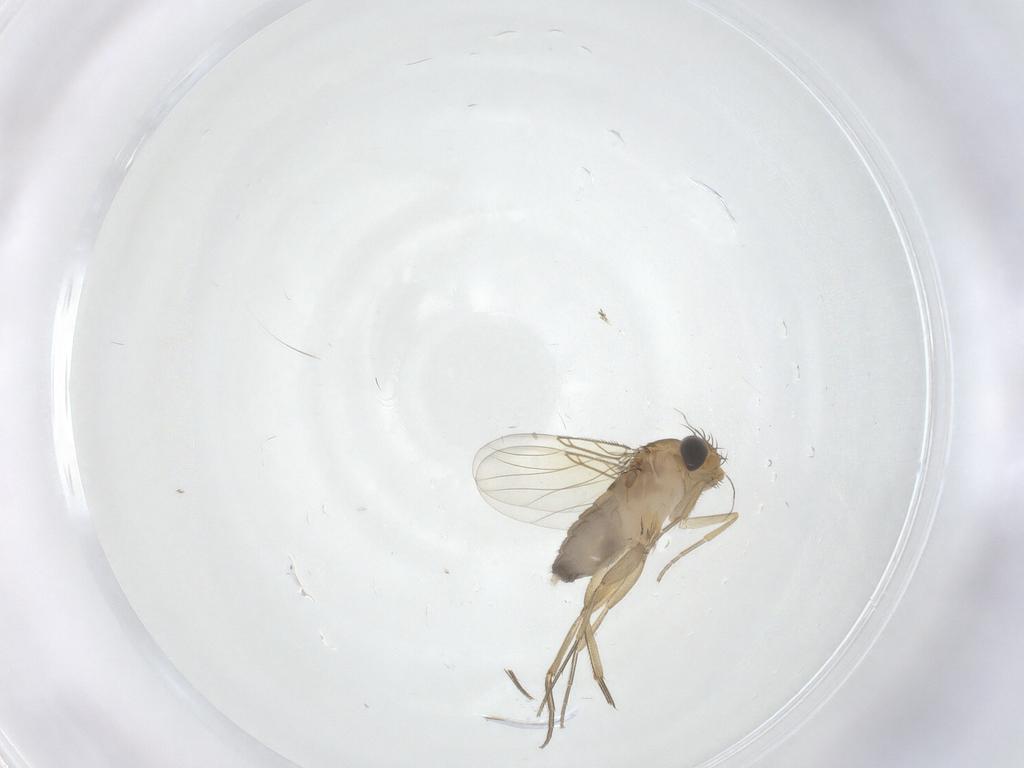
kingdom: Animalia
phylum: Arthropoda
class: Insecta
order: Diptera
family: Phoridae
